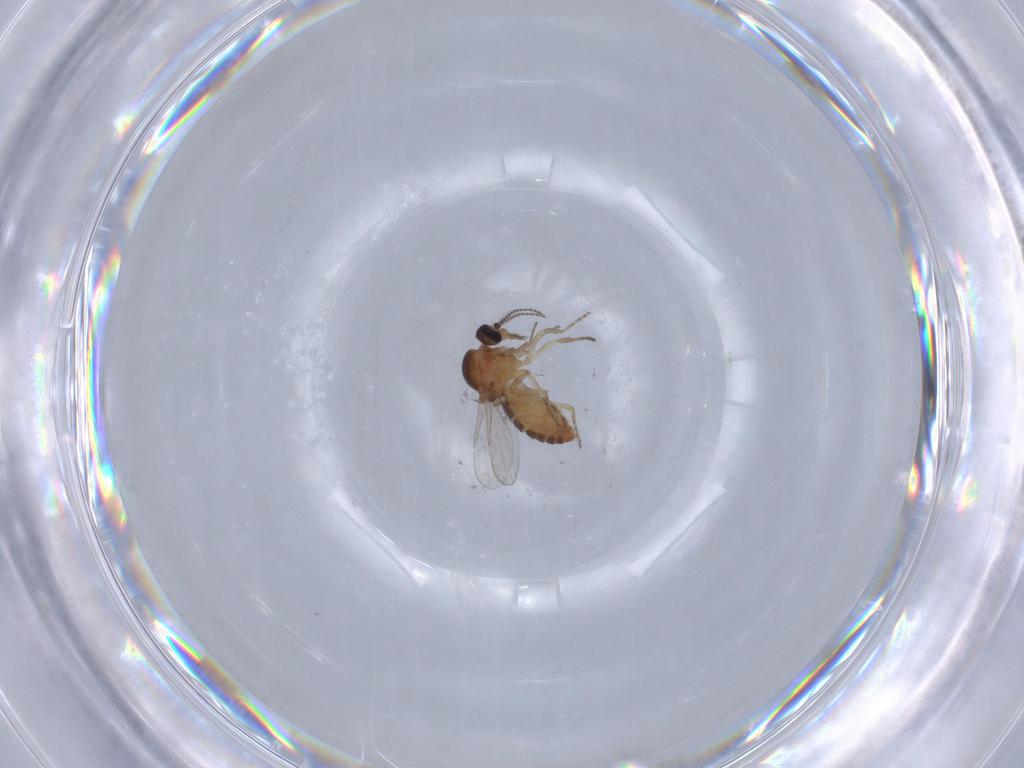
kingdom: Animalia
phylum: Arthropoda
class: Insecta
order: Diptera
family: Ceratopogonidae
